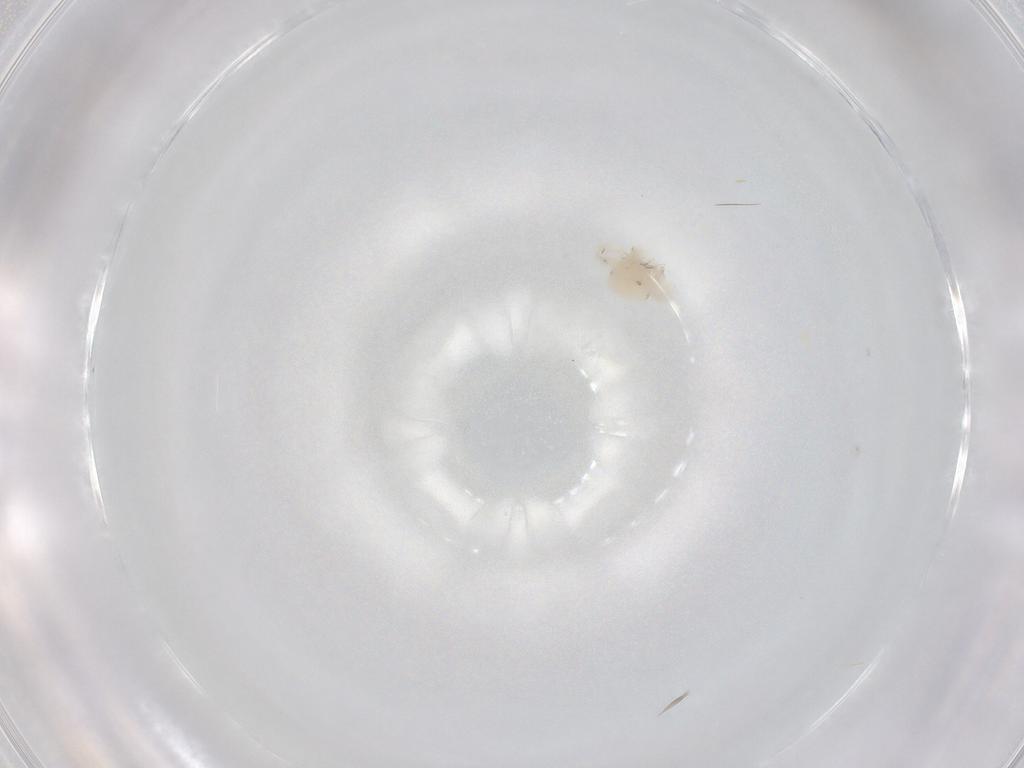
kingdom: Animalia
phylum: Arthropoda
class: Arachnida
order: Trombidiformes
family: Anystidae
